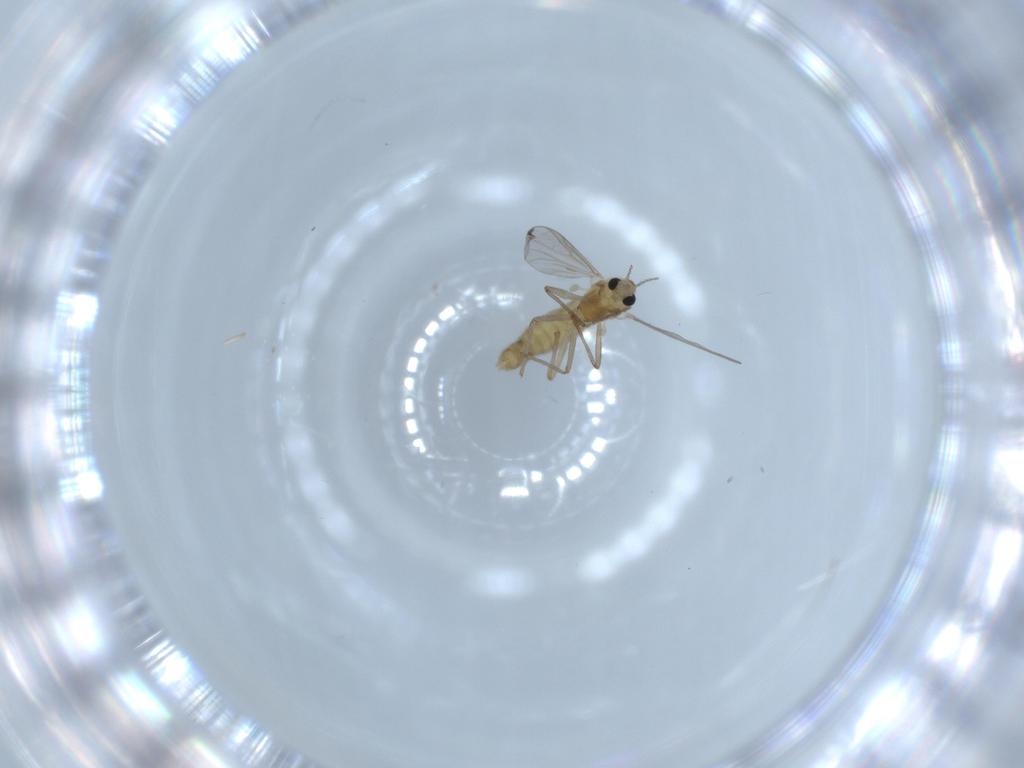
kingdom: Animalia
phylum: Arthropoda
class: Insecta
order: Diptera
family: Chironomidae
